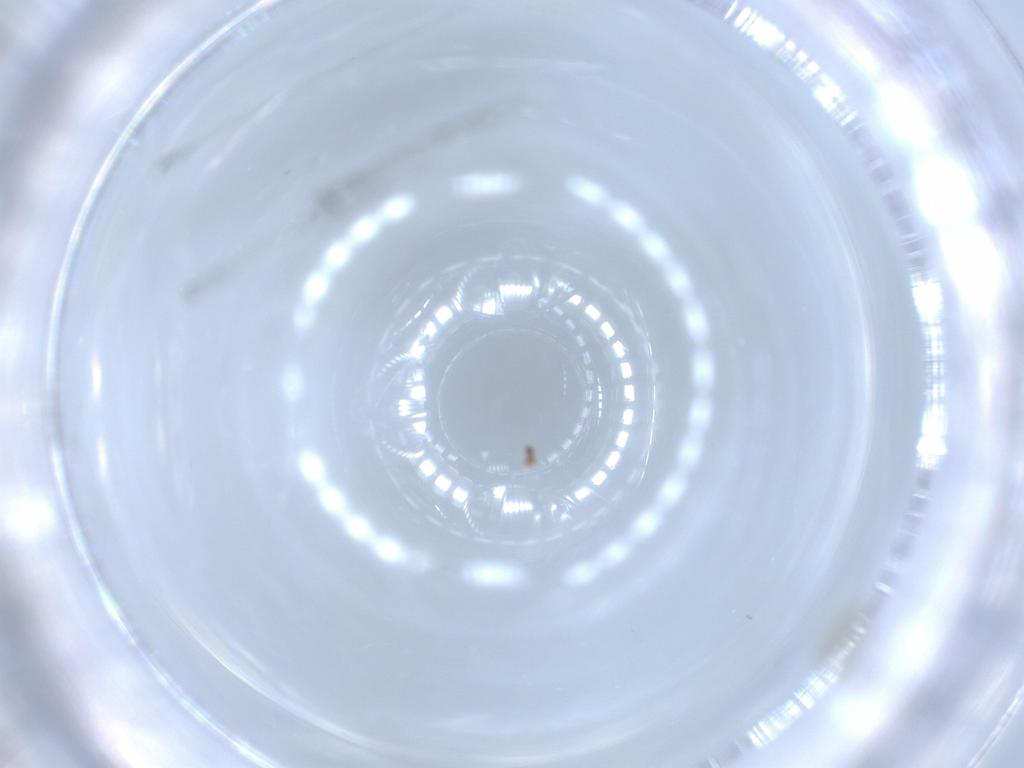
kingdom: Animalia
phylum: Arthropoda
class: Insecta
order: Diptera
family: Cecidomyiidae
